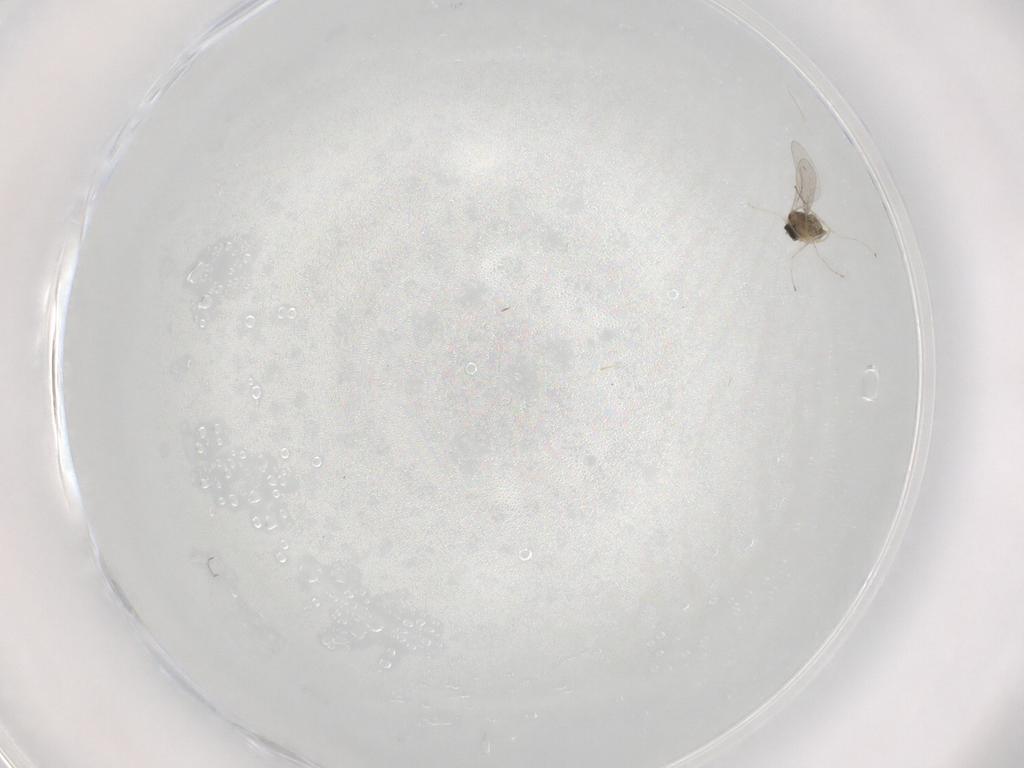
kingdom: Animalia
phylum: Arthropoda
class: Insecta
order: Diptera
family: Cecidomyiidae
